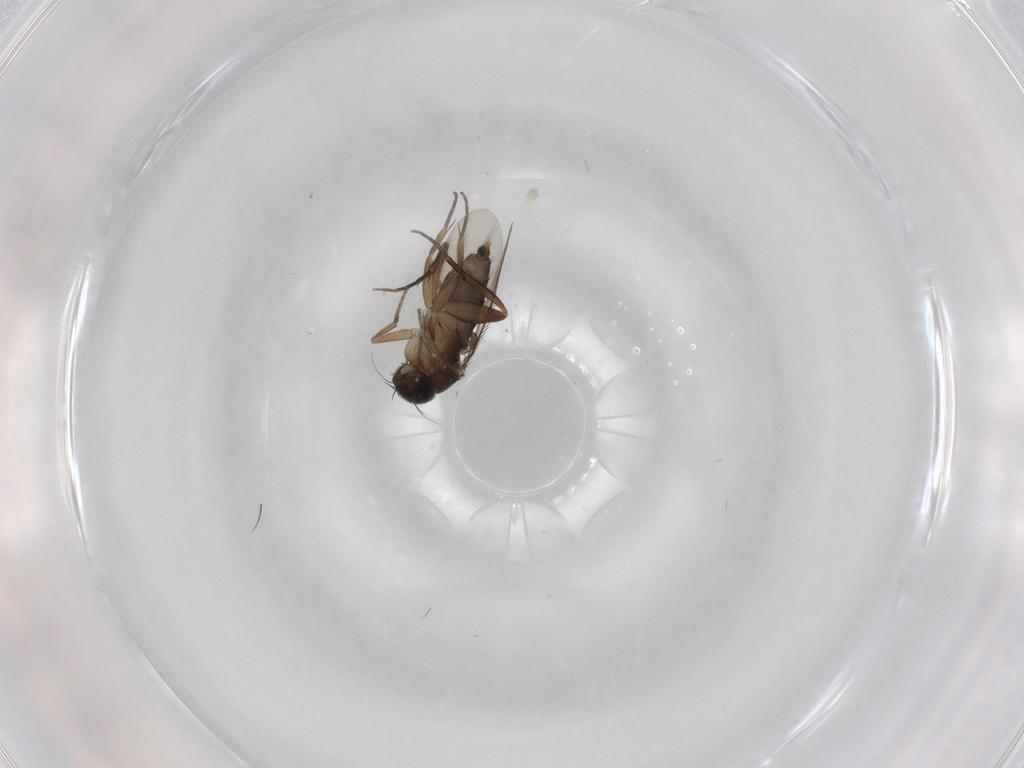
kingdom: Animalia
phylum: Arthropoda
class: Insecta
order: Diptera
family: Phoridae
